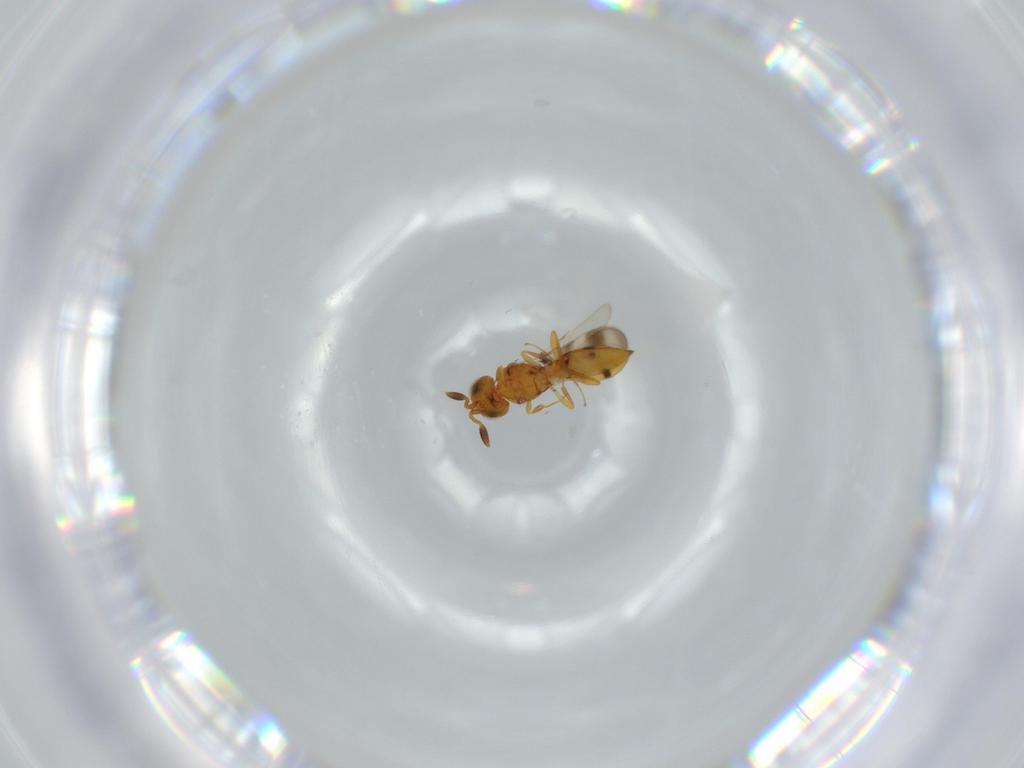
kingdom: Animalia
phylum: Arthropoda
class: Insecta
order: Hymenoptera
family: Scelionidae
